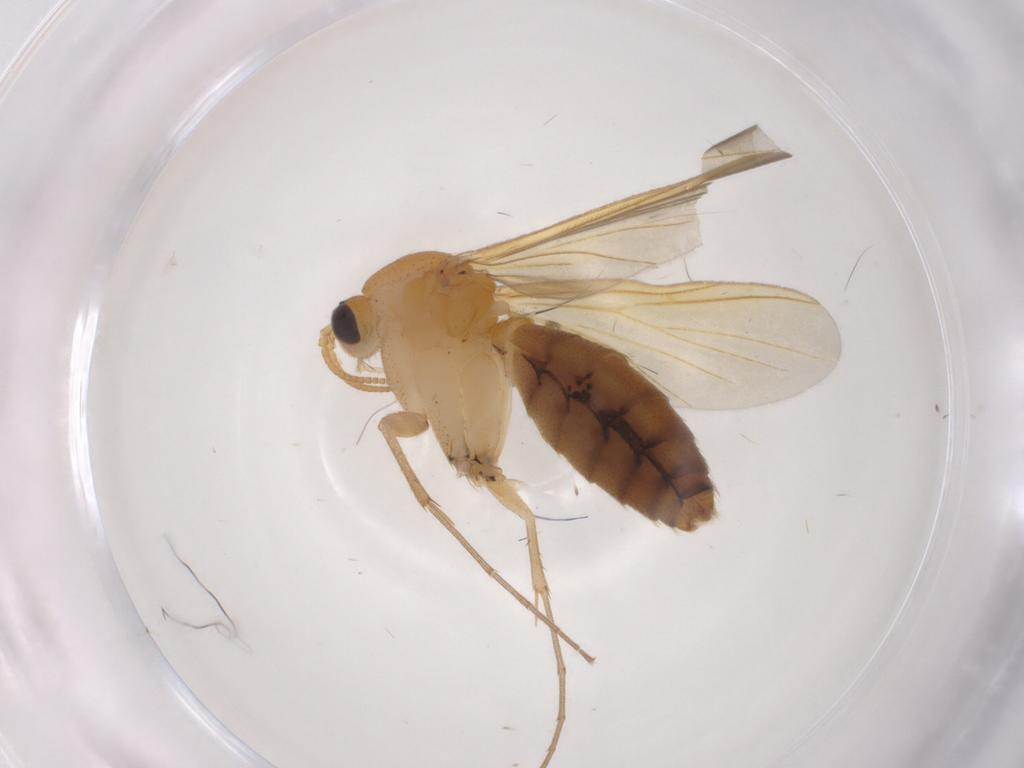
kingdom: Animalia
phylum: Arthropoda
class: Insecta
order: Diptera
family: Mycetophilidae
